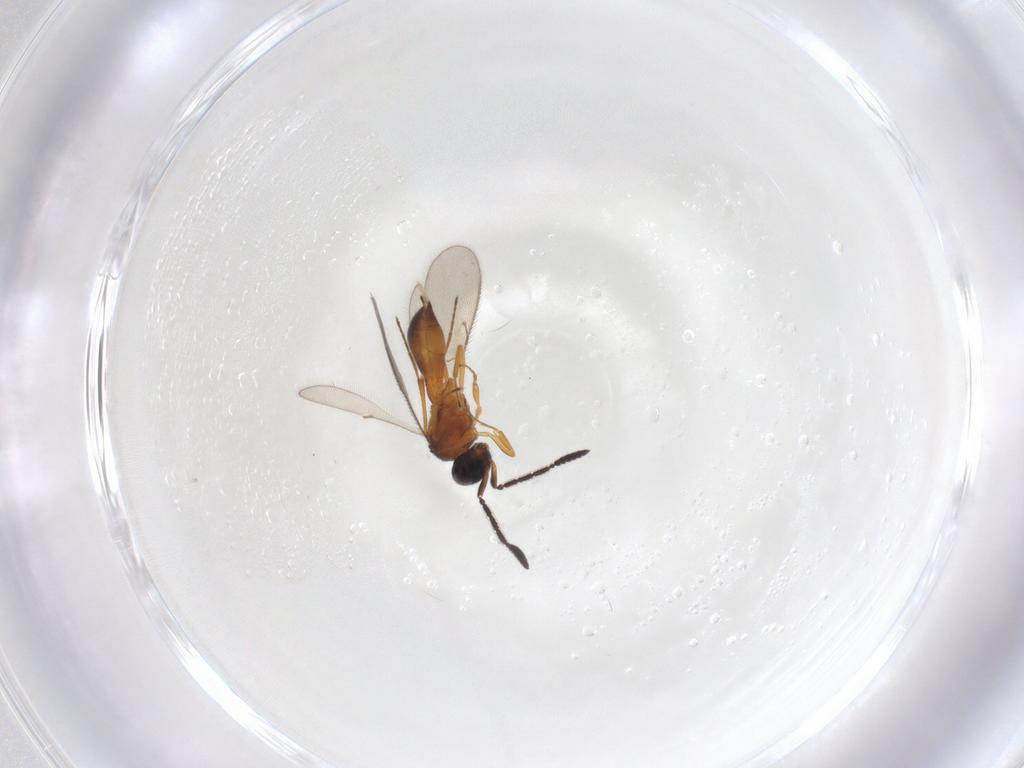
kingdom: Animalia
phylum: Arthropoda
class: Insecta
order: Hymenoptera
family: Scelionidae
